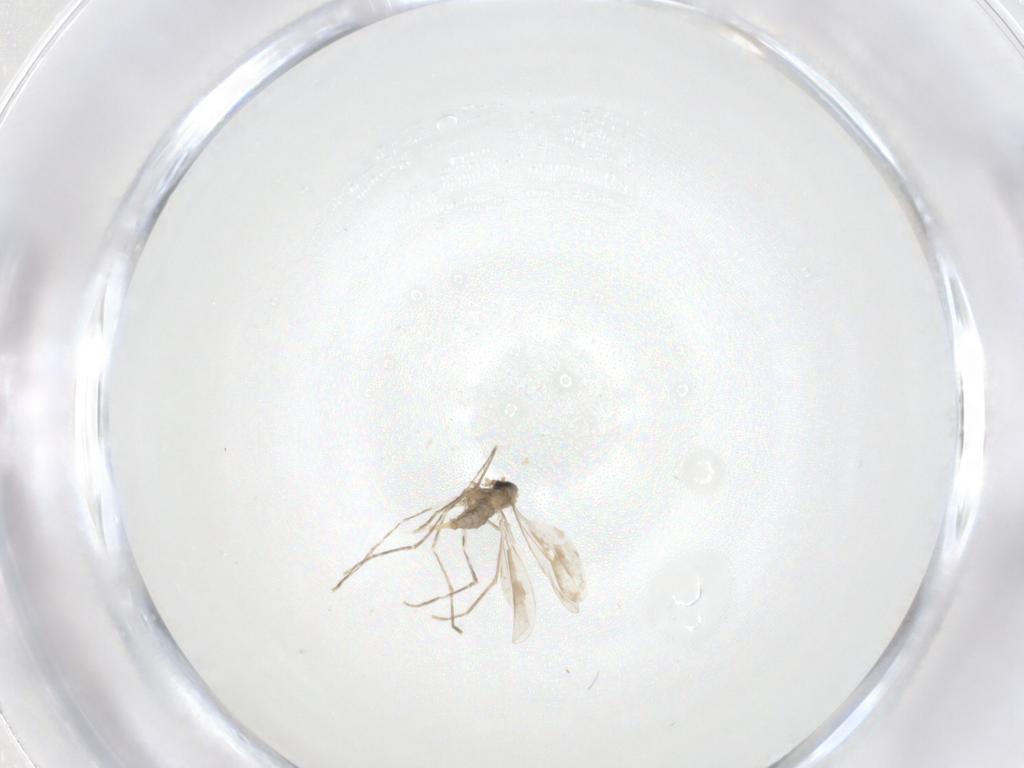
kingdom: Animalia
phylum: Arthropoda
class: Insecta
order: Diptera
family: Cecidomyiidae
